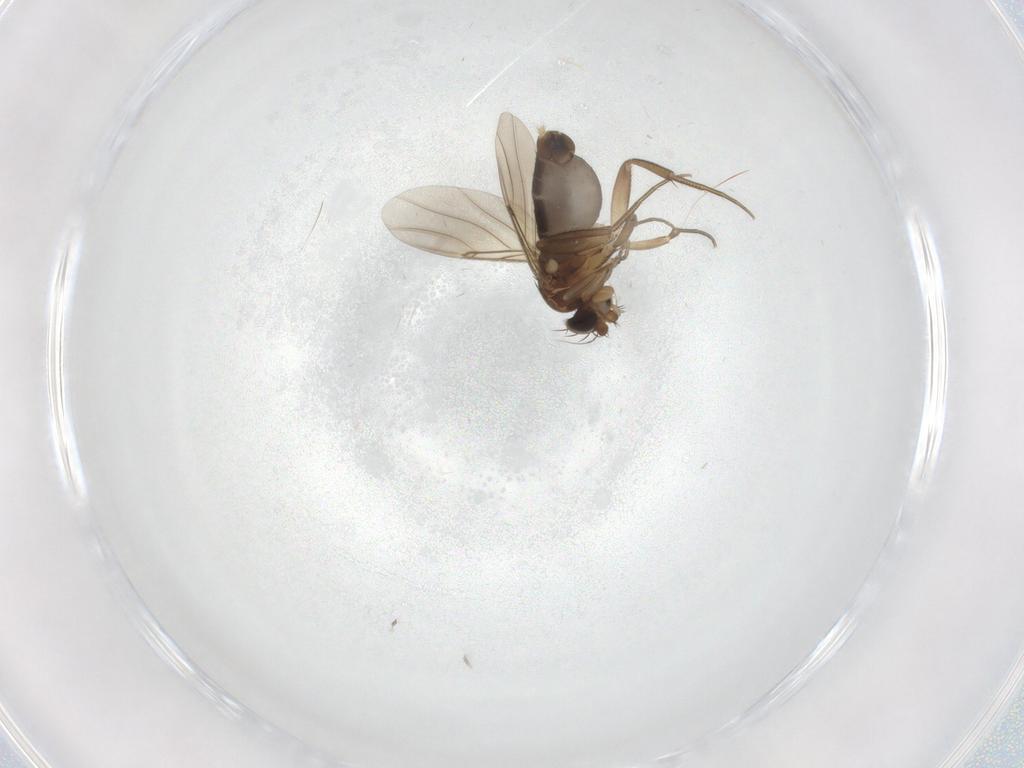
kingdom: Animalia
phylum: Arthropoda
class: Insecta
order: Diptera
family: Phoridae
